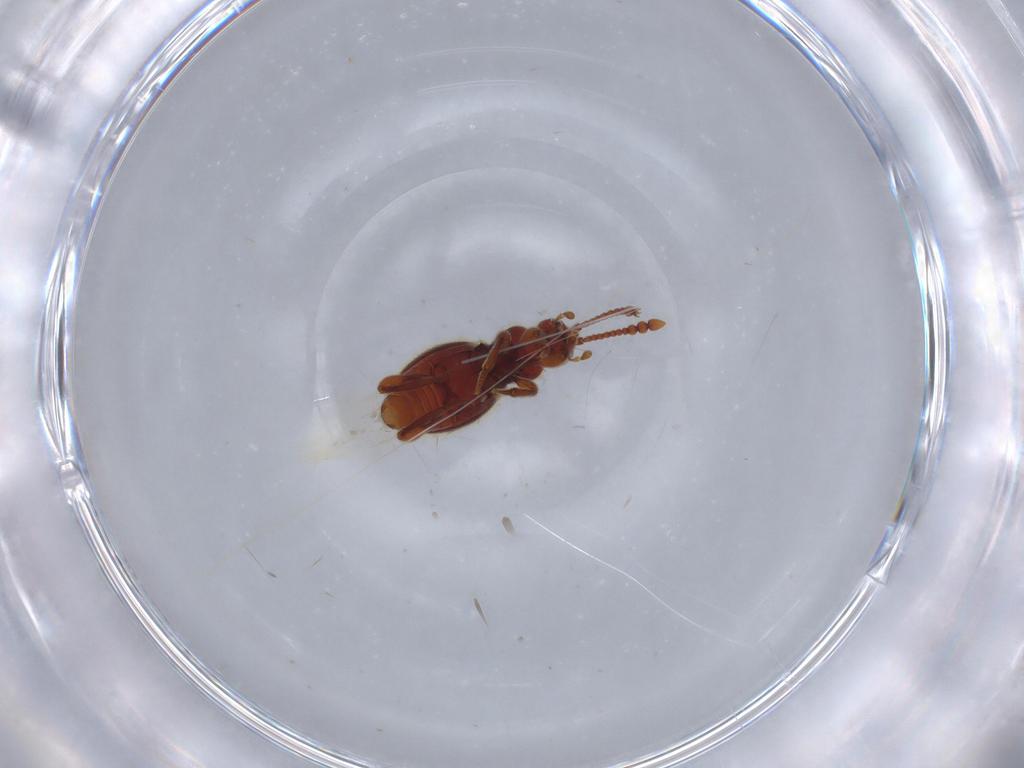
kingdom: Animalia
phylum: Arthropoda
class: Insecta
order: Coleoptera
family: Staphylinidae
